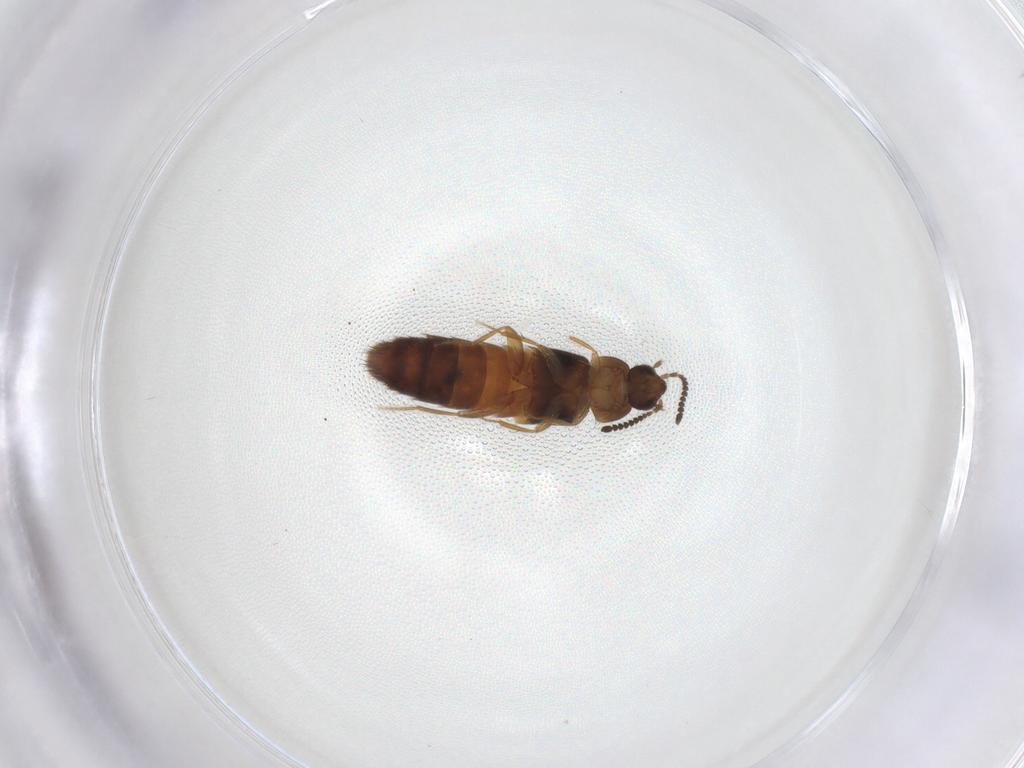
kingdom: Animalia
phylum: Arthropoda
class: Insecta
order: Coleoptera
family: Staphylinidae
